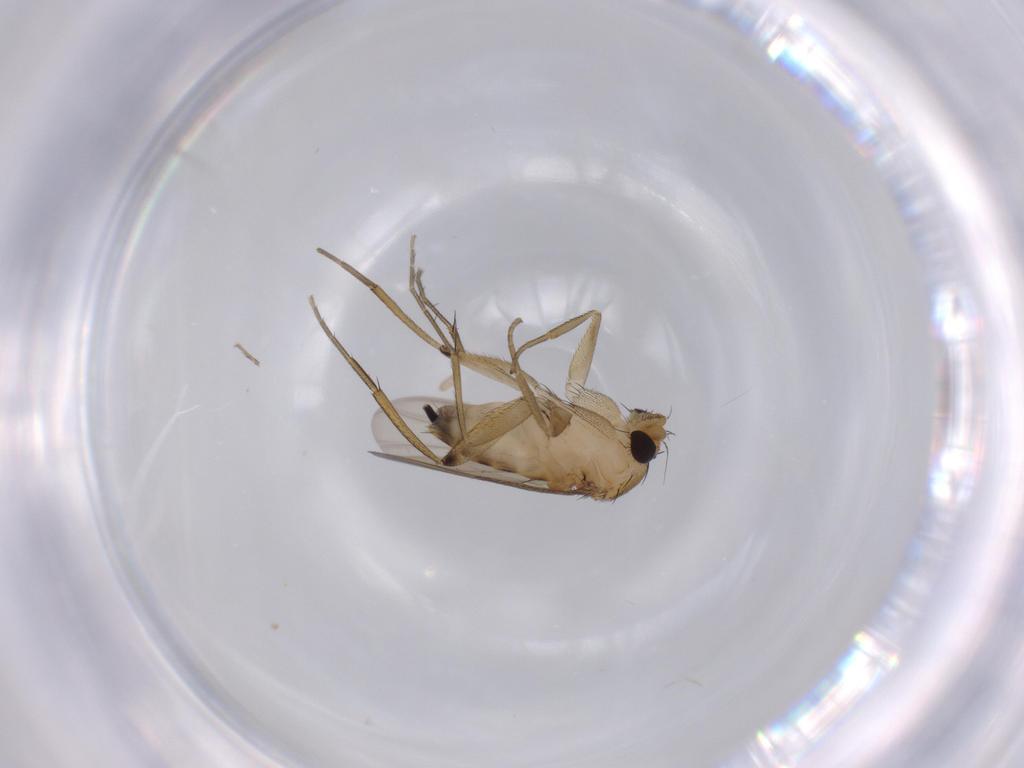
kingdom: Animalia
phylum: Arthropoda
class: Insecta
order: Diptera
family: Phoridae
